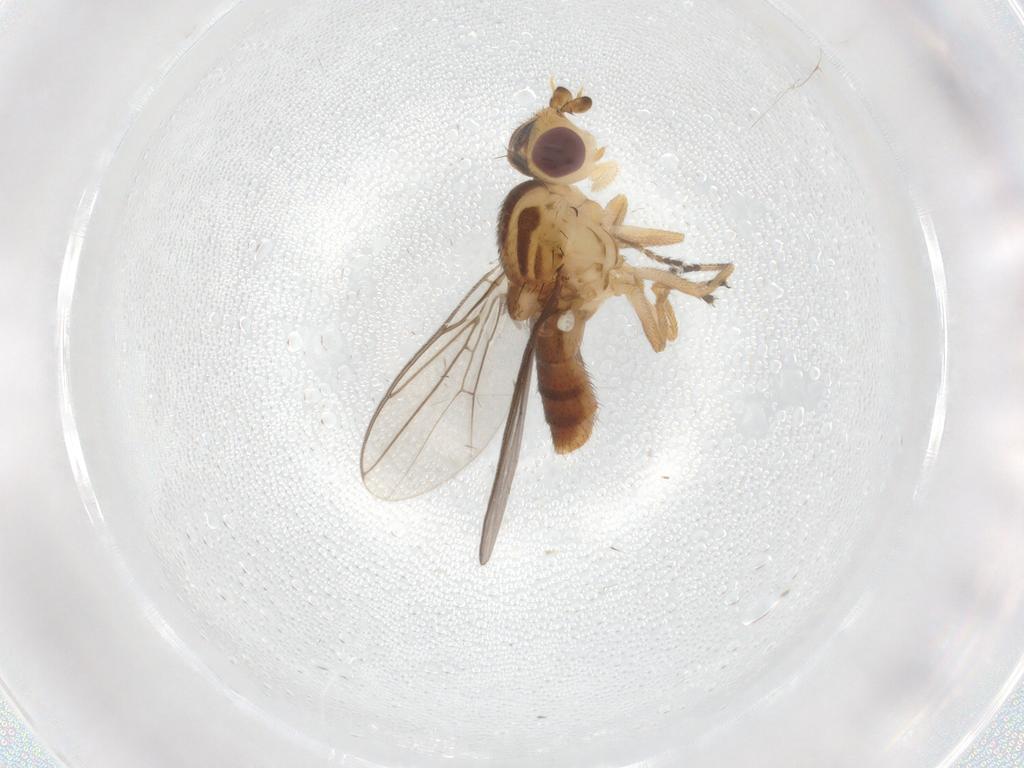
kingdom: Animalia
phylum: Arthropoda
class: Insecta
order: Diptera
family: Chloropidae
